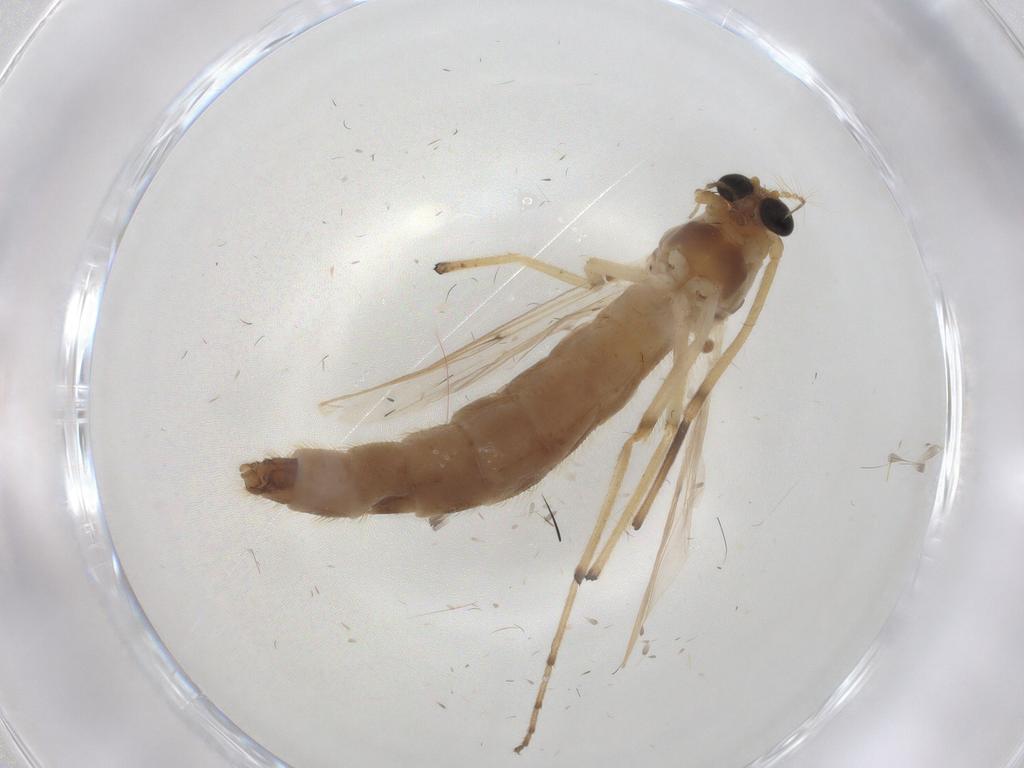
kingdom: Animalia
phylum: Arthropoda
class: Insecta
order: Diptera
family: Chironomidae
